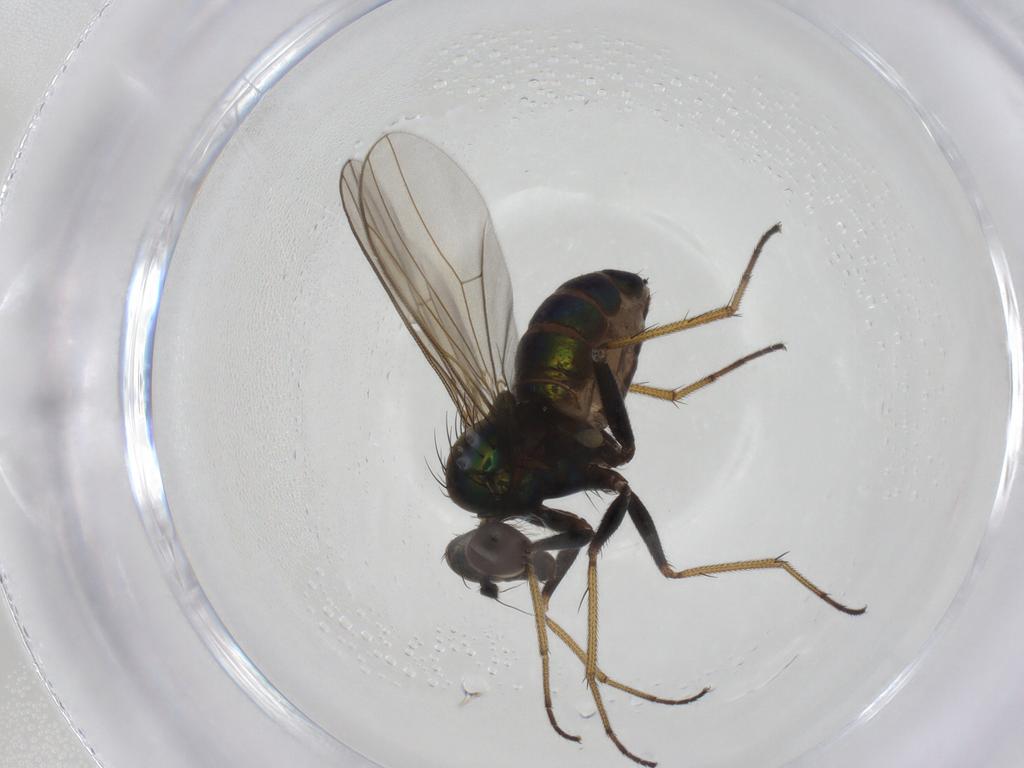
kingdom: Animalia
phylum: Arthropoda
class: Insecta
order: Diptera
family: Dolichopodidae
